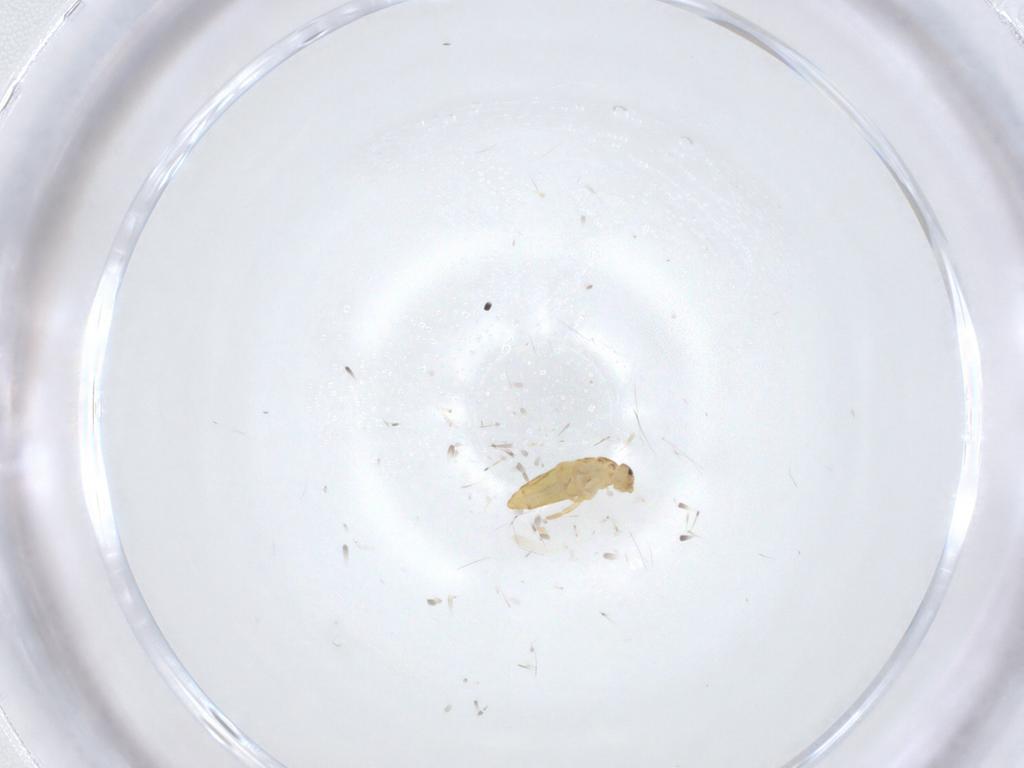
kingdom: Animalia
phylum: Arthropoda
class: Collembola
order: Entomobryomorpha
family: Entomobryidae
